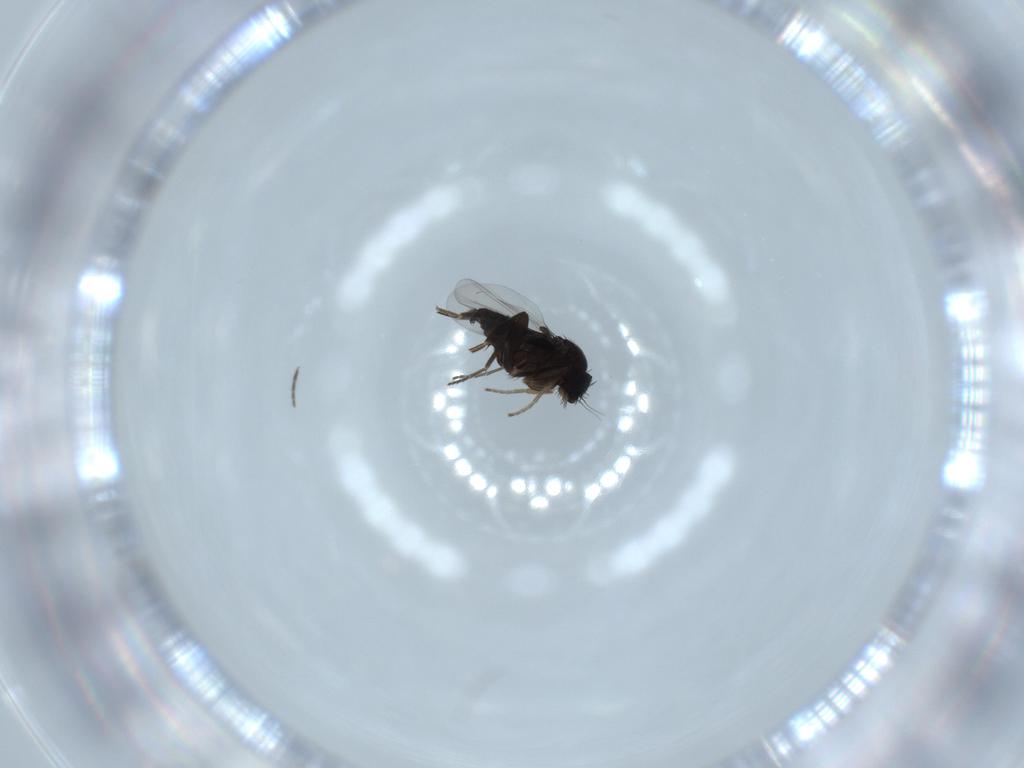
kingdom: Animalia
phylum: Arthropoda
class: Insecta
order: Diptera
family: Phoridae
